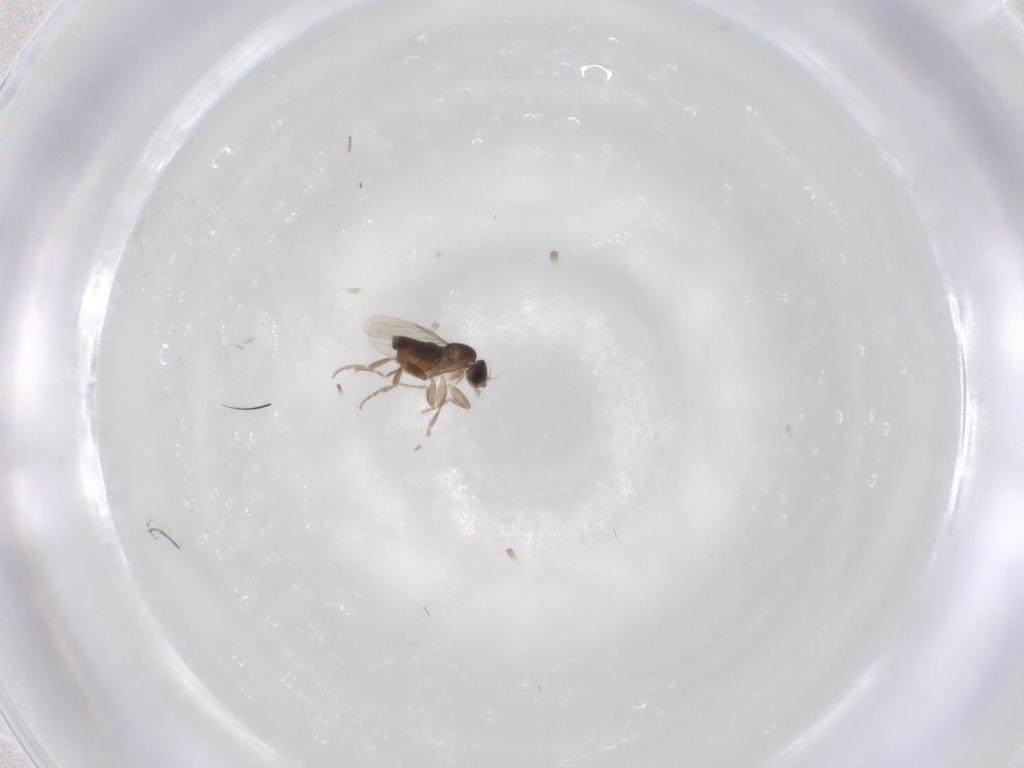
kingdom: Animalia
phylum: Arthropoda
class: Insecta
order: Diptera
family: Phoridae
